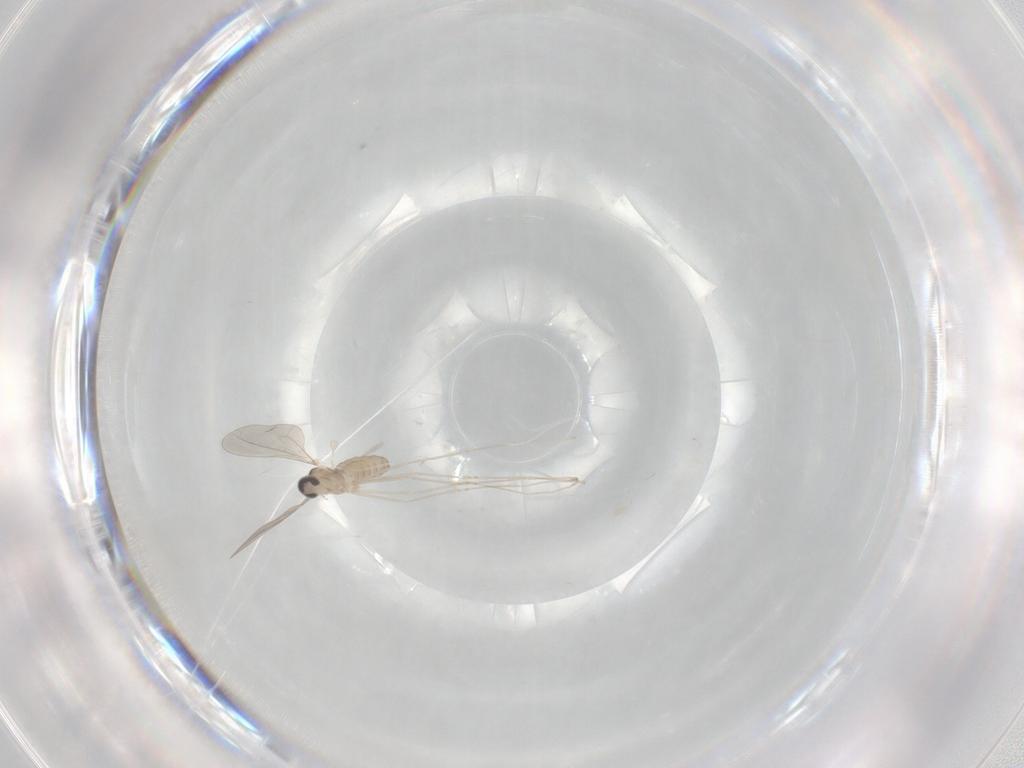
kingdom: Animalia
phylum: Arthropoda
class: Insecta
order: Diptera
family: Cecidomyiidae
